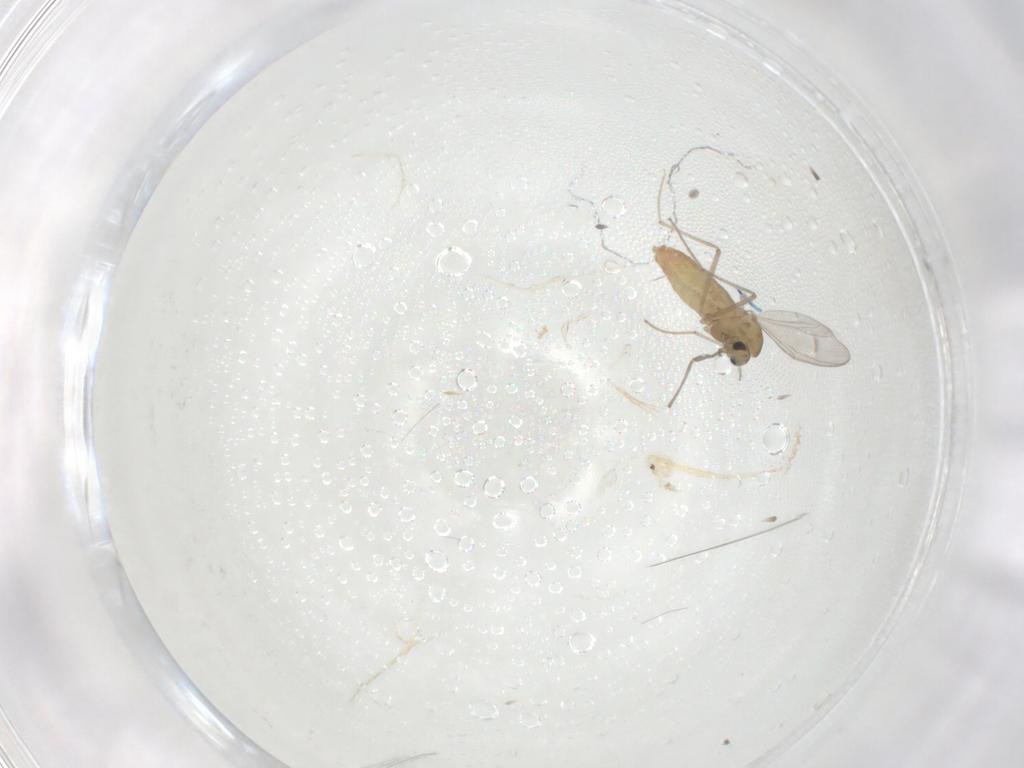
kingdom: Animalia
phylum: Arthropoda
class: Insecta
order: Diptera
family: Chironomidae
